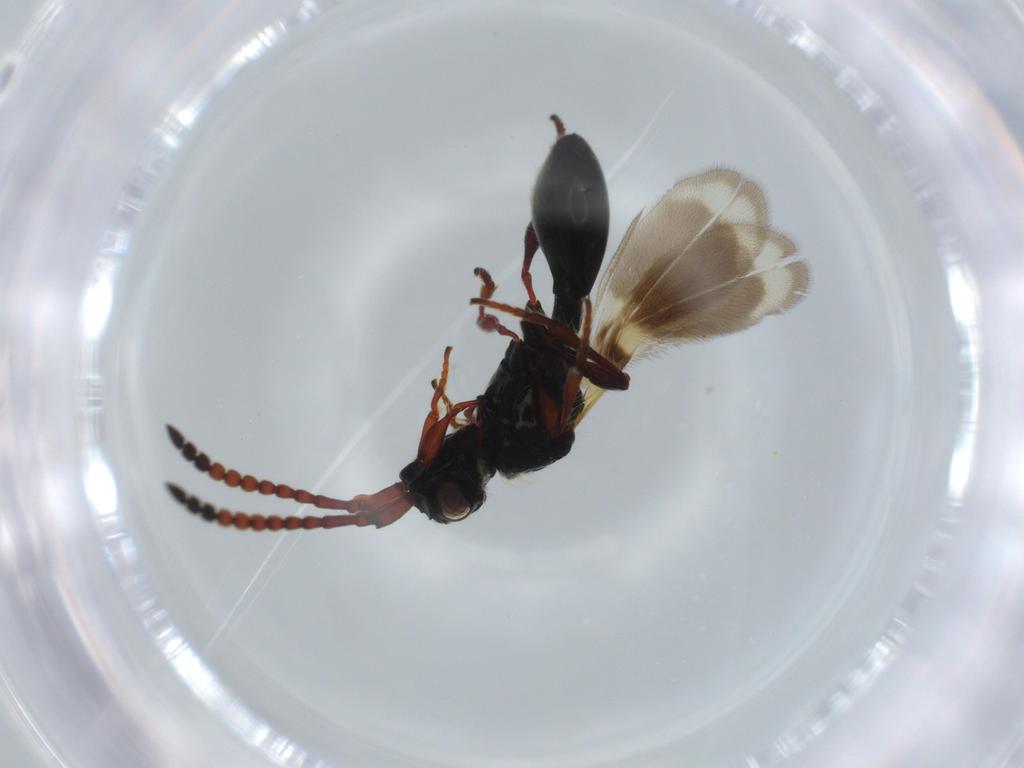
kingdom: Animalia
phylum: Arthropoda
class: Insecta
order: Hymenoptera
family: Diapriidae
